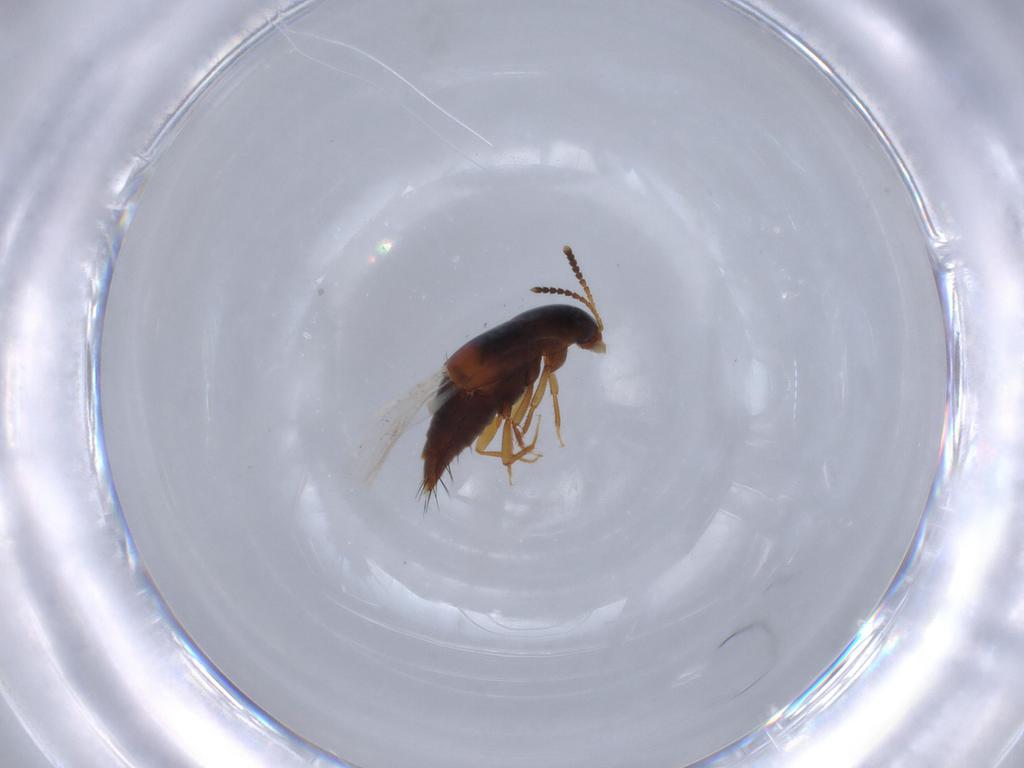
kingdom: Animalia
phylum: Arthropoda
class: Insecta
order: Coleoptera
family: Staphylinidae
